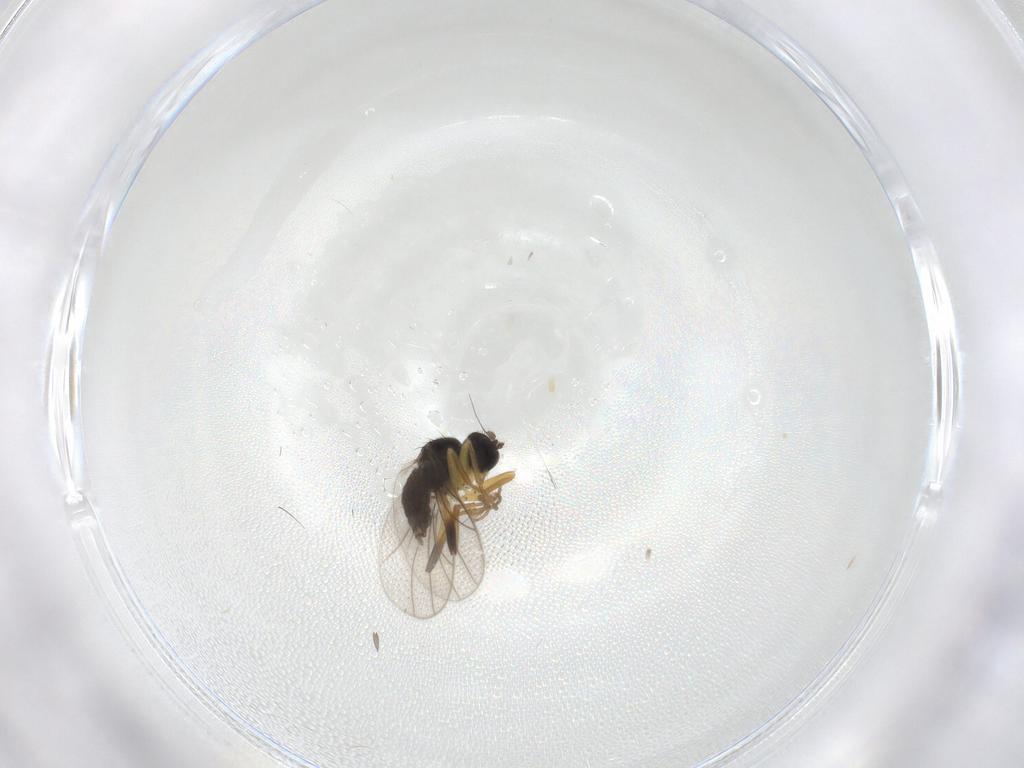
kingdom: Animalia
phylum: Arthropoda
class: Insecta
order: Diptera
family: Hybotidae
